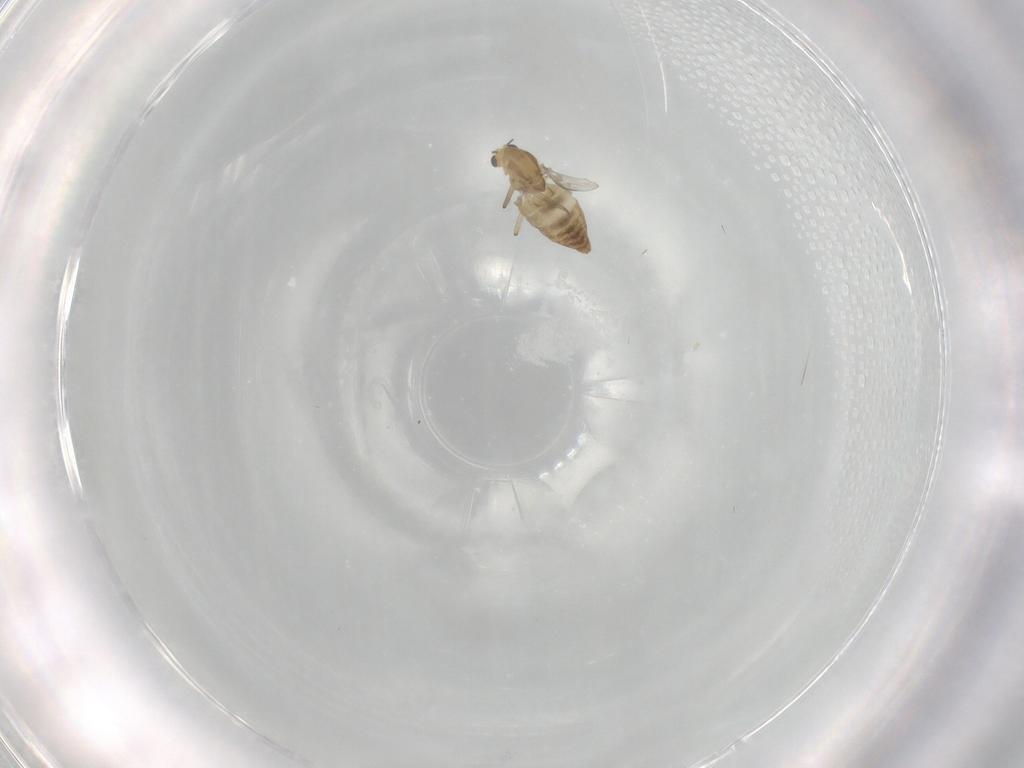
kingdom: Animalia
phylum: Arthropoda
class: Insecta
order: Diptera
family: Chironomidae
